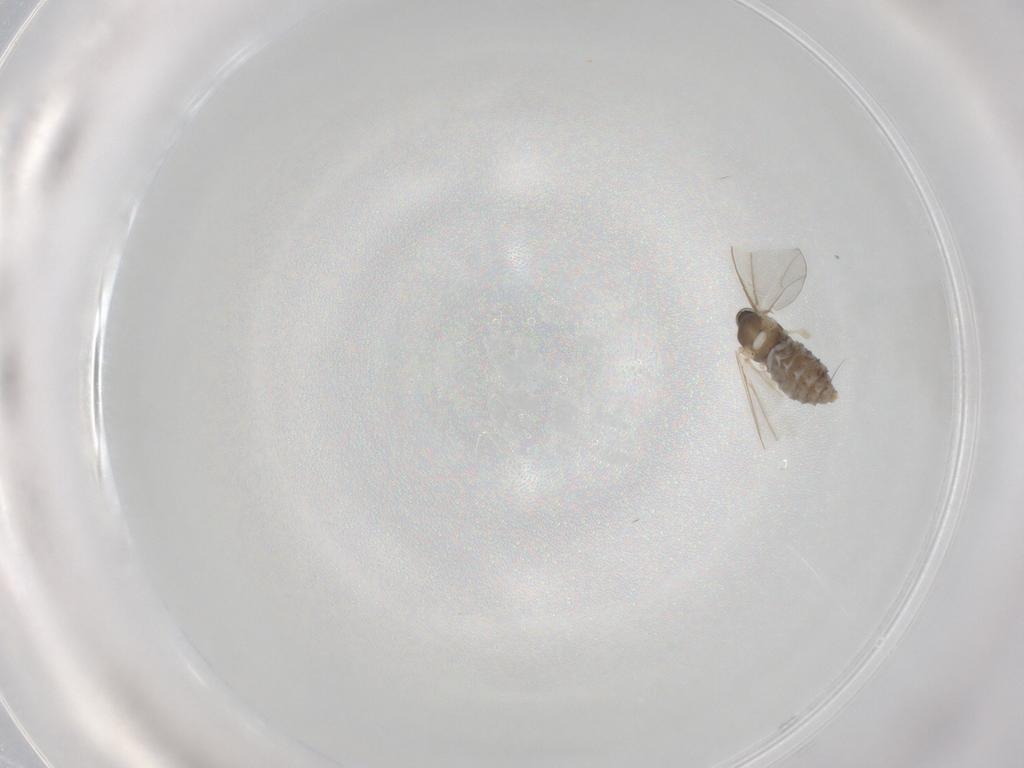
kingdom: Animalia
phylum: Arthropoda
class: Insecta
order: Diptera
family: Cecidomyiidae
